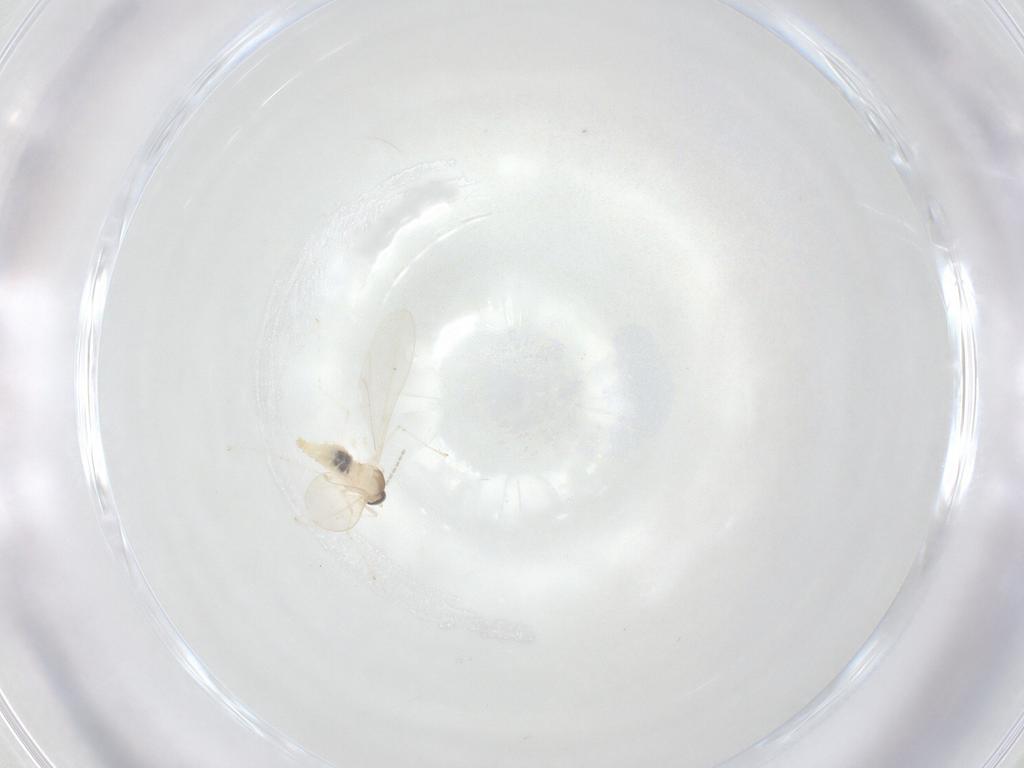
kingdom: Animalia
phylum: Arthropoda
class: Insecta
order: Diptera
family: Cecidomyiidae
